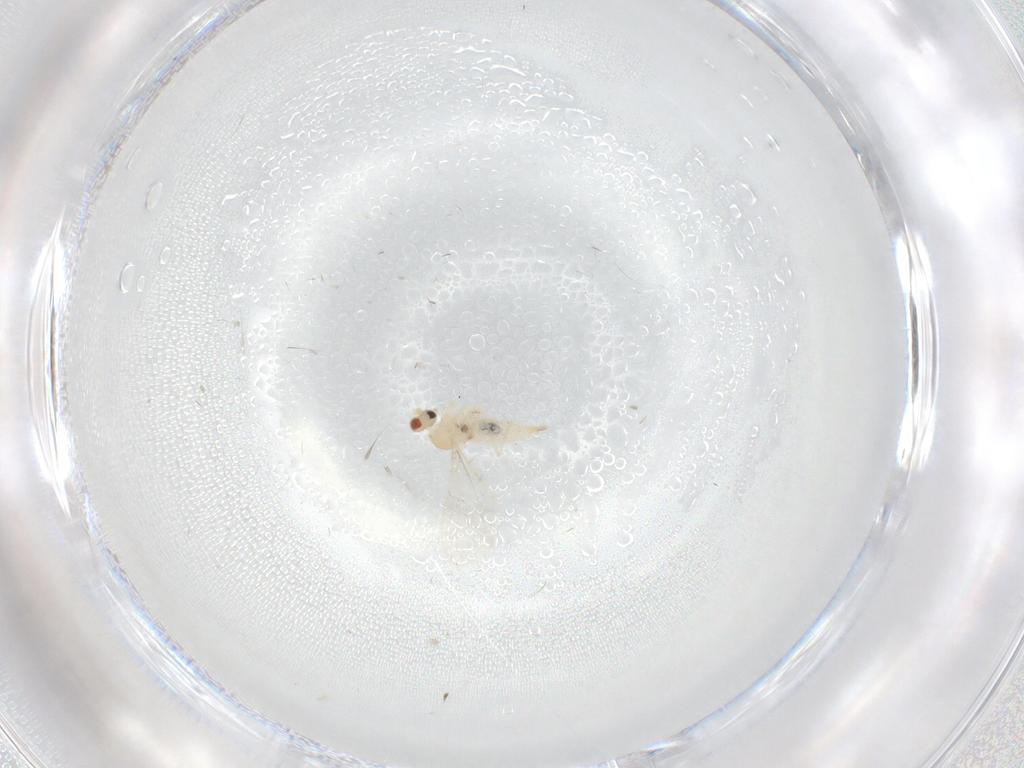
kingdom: Animalia
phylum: Arthropoda
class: Insecta
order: Diptera
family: Cecidomyiidae
